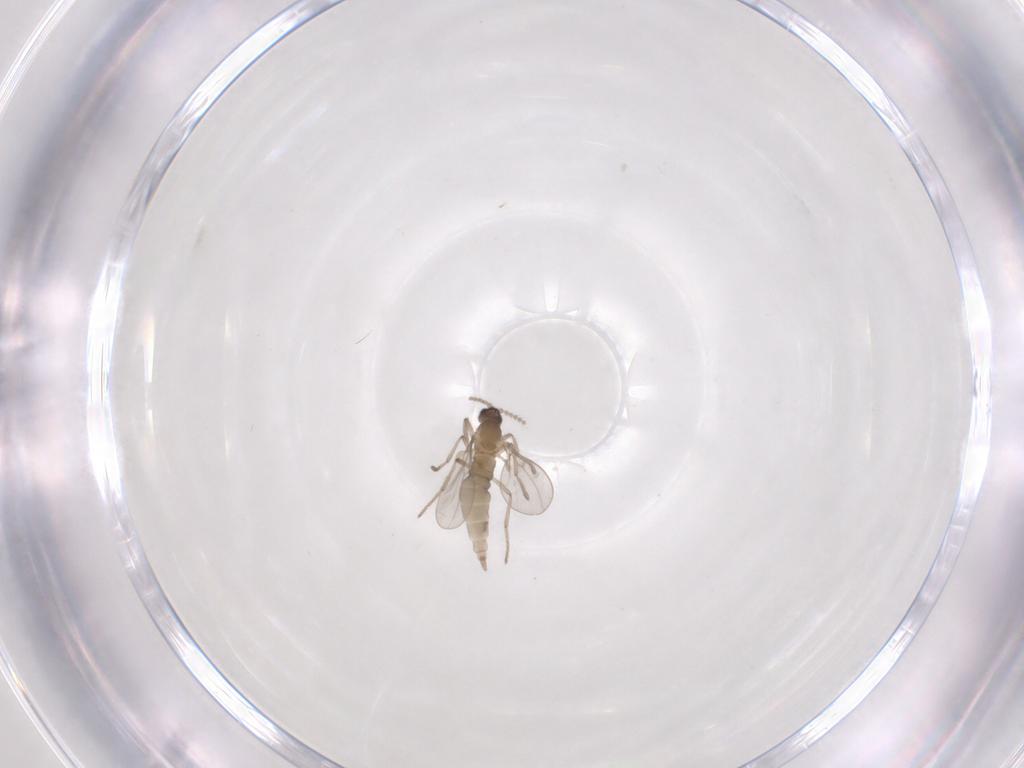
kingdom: Animalia
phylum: Arthropoda
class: Insecta
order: Diptera
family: Cecidomyiidae
